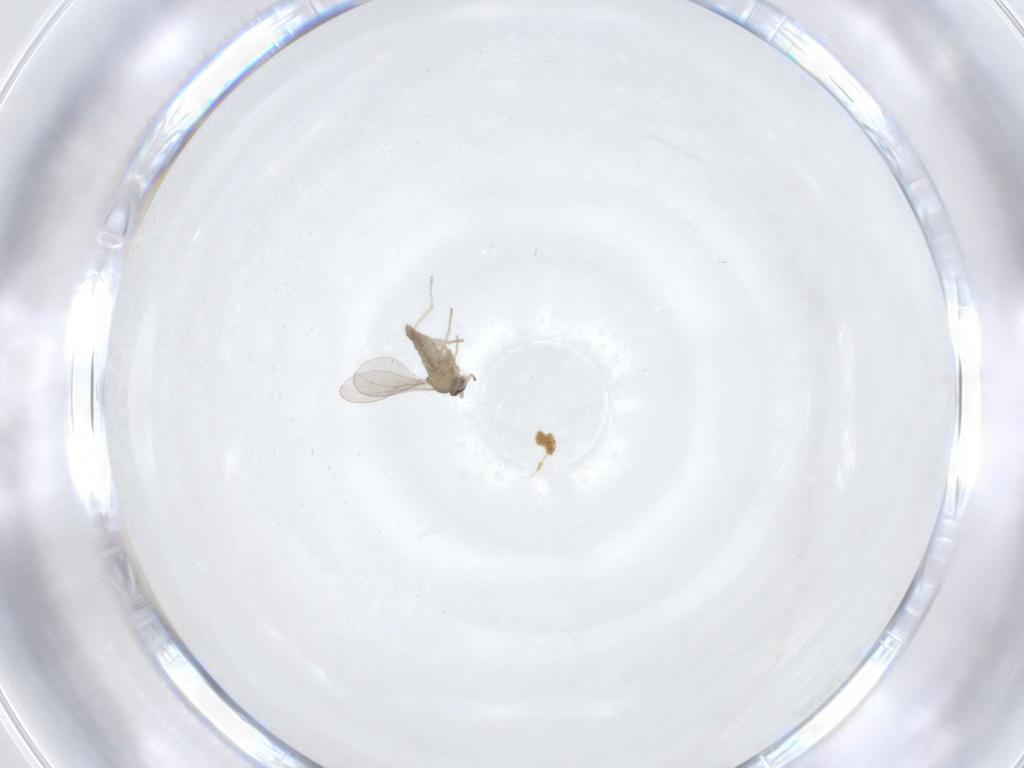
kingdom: Animalia
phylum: Arthropoda
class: Insecta
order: Diptera
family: Cecidomyiidae
